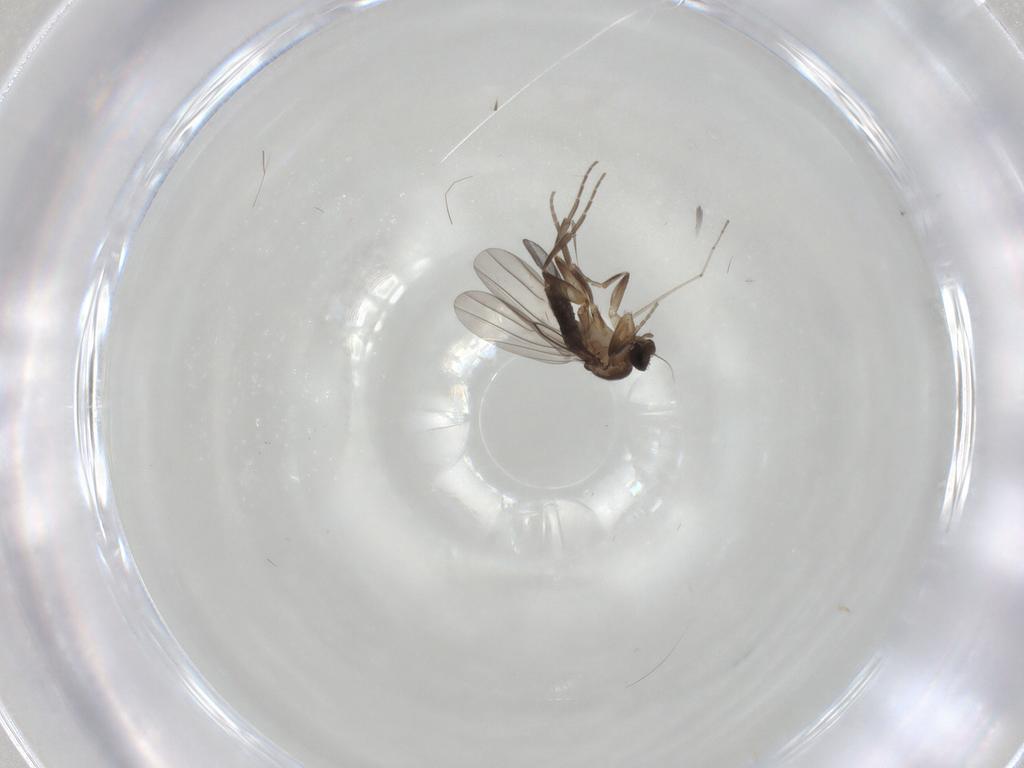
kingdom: Animalia
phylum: Arthropoda
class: Insecta
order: Diptera
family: Phoridae
